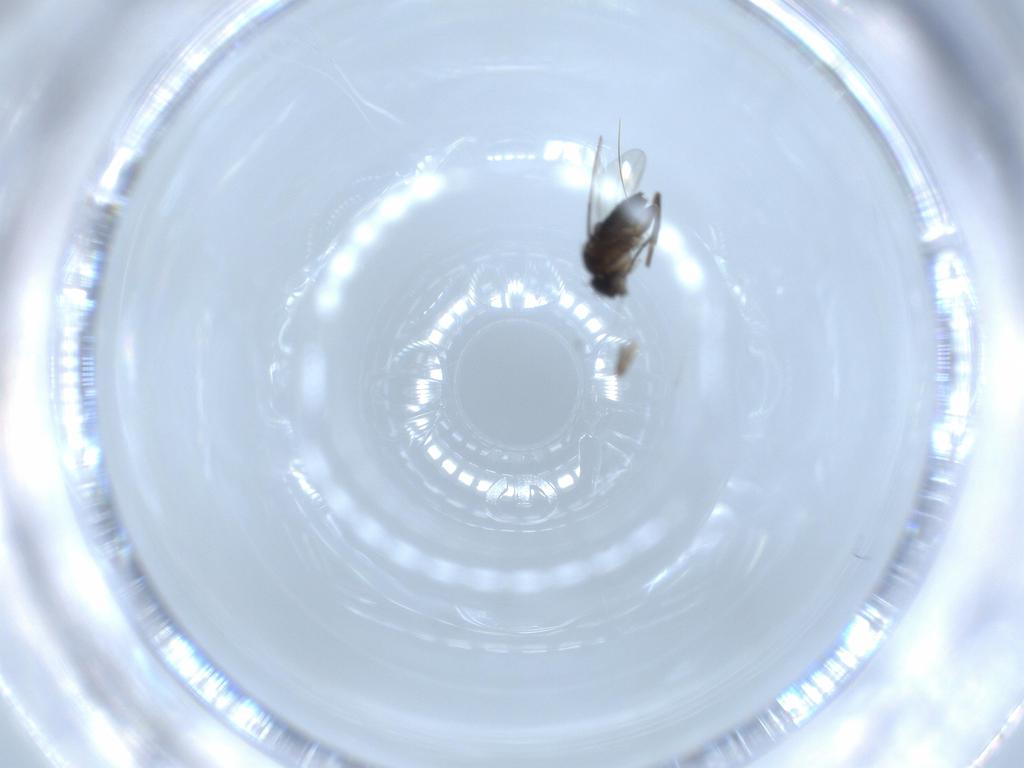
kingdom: Animalia
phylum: Arthropoda
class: Insecta
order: Diptera
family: Phoridae
